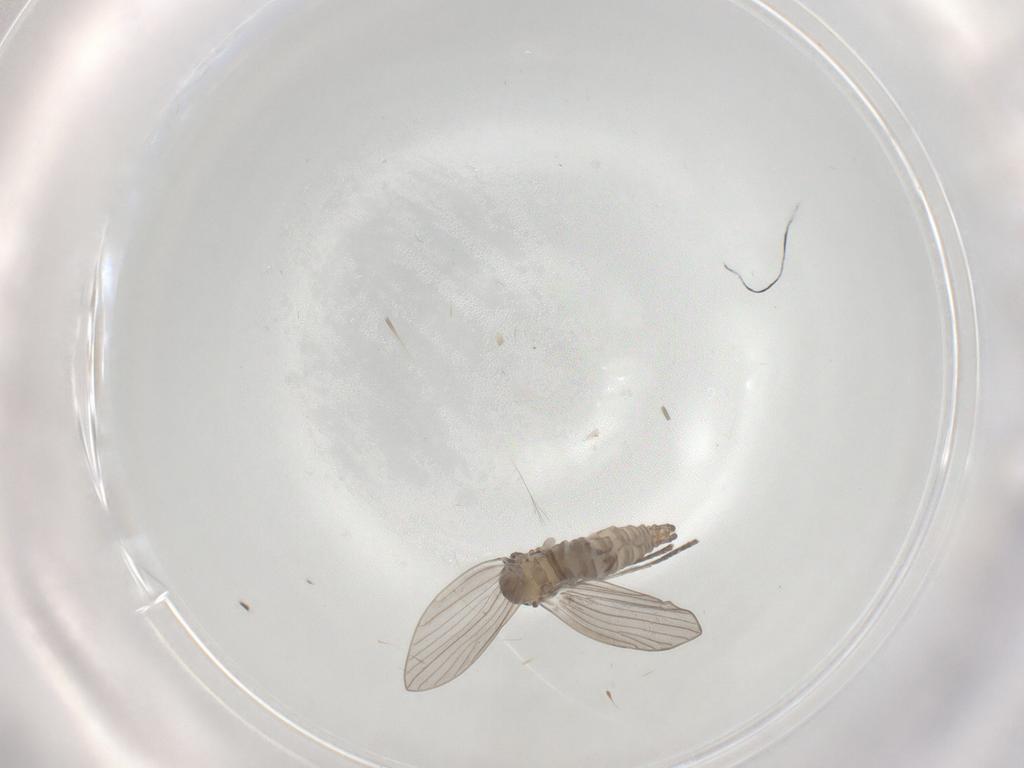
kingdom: Animalia
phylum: Arthropoda
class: Insecta
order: Diptera
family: Psychodidae
